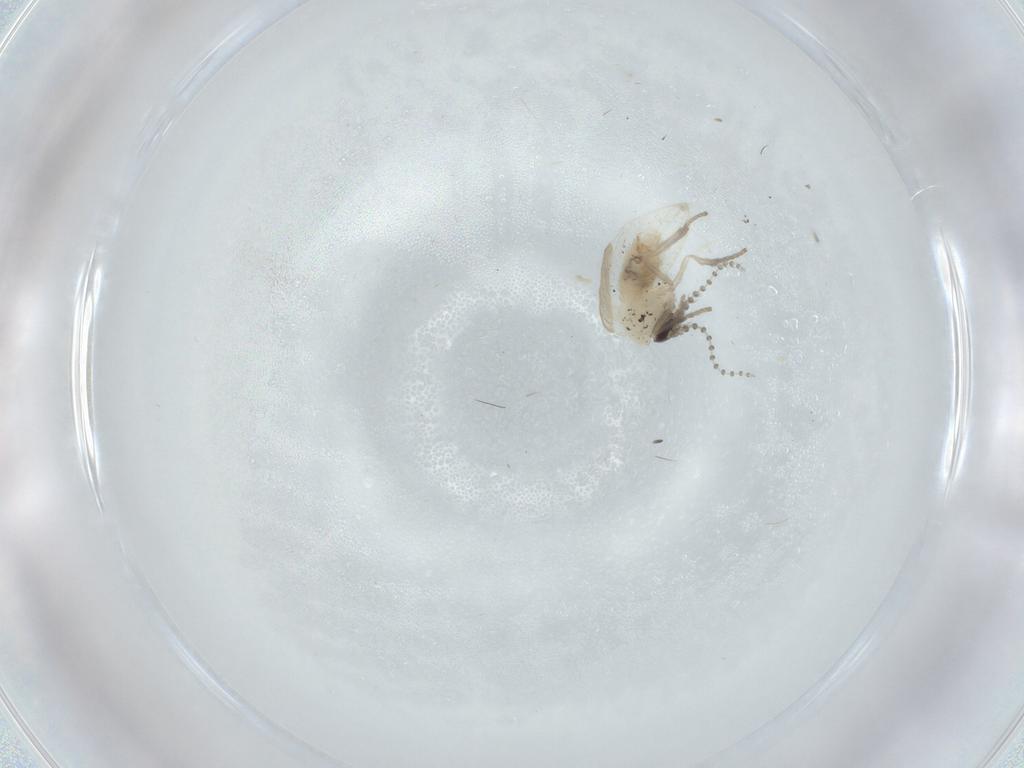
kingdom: Animalia
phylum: Arthropoda
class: Insecta
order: Diptera
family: Psychodidae
